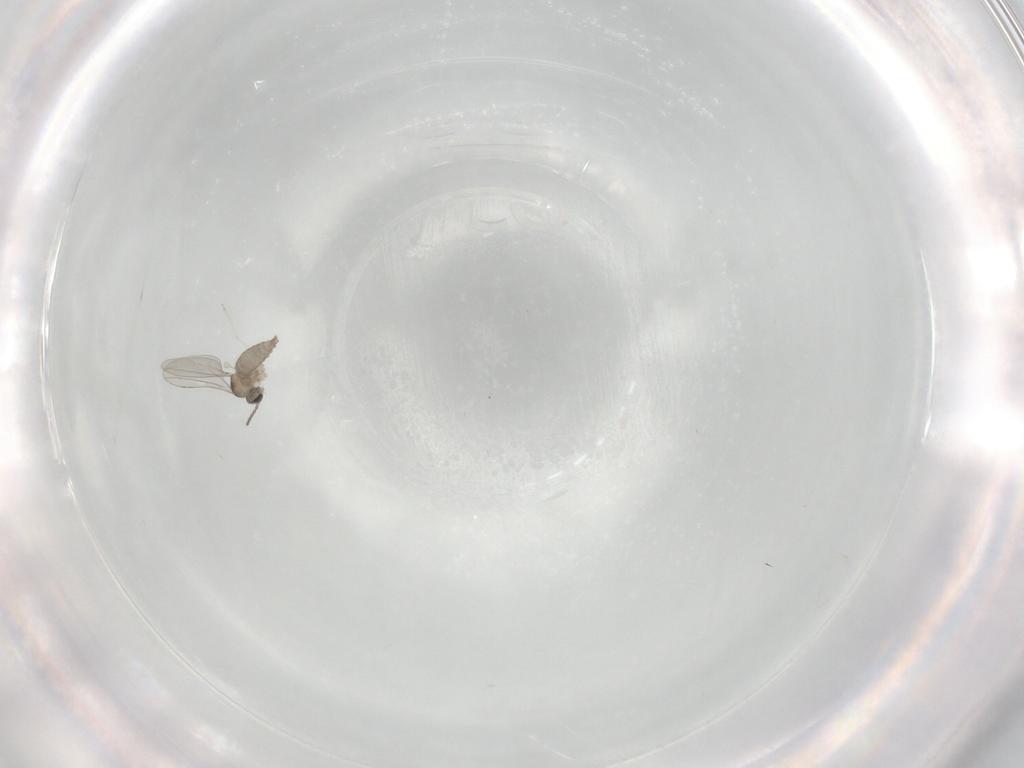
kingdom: Animalia
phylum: Arthropoda
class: Insecta
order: Diptera
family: Cecidomyiidae
